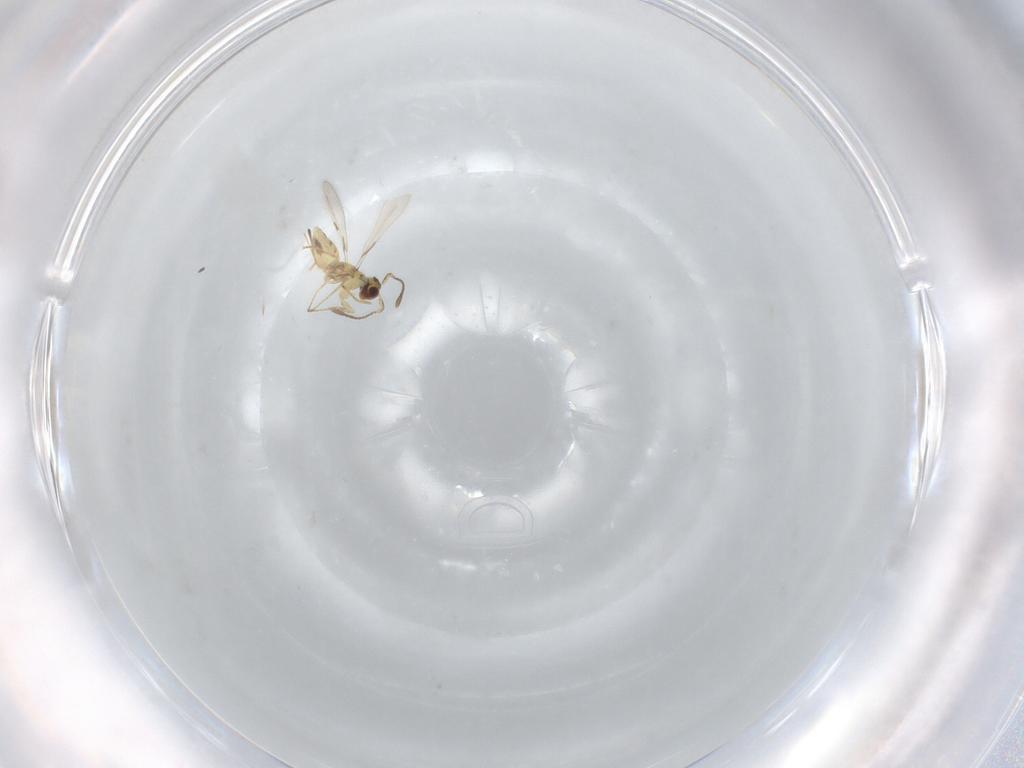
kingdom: Animalia
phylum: Arthropoda
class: Insecta
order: Hymenoptera
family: Mymaridae
